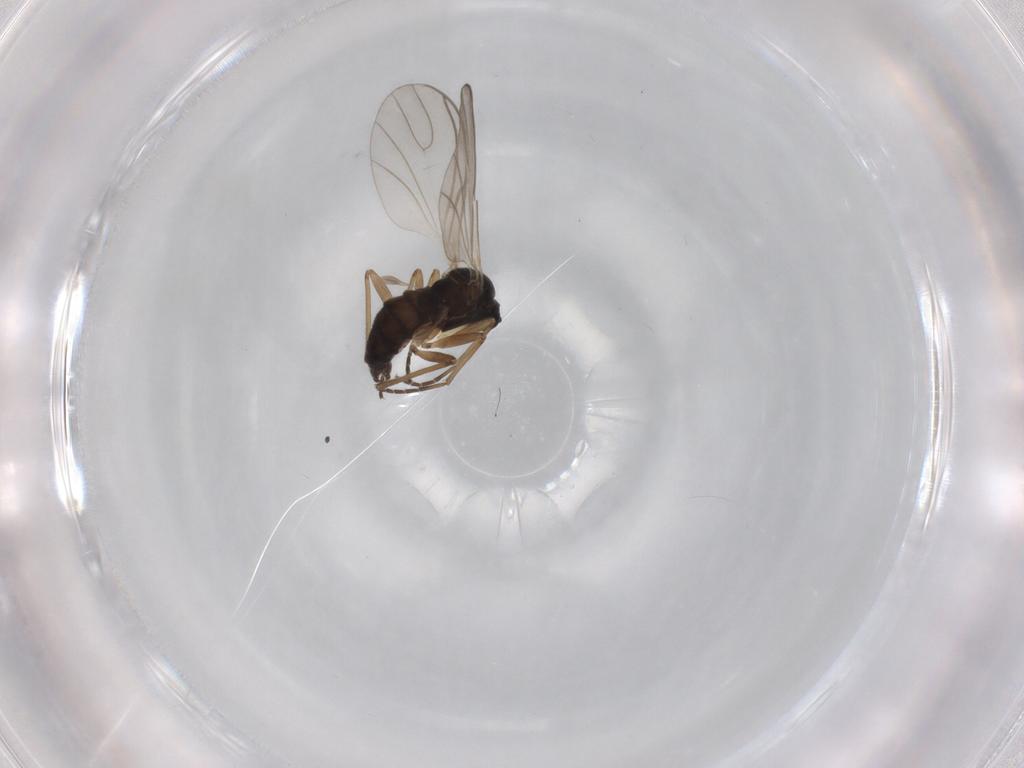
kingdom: Animalia
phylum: Arthropoda
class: Insecta
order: Diptera
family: Sciaridae
